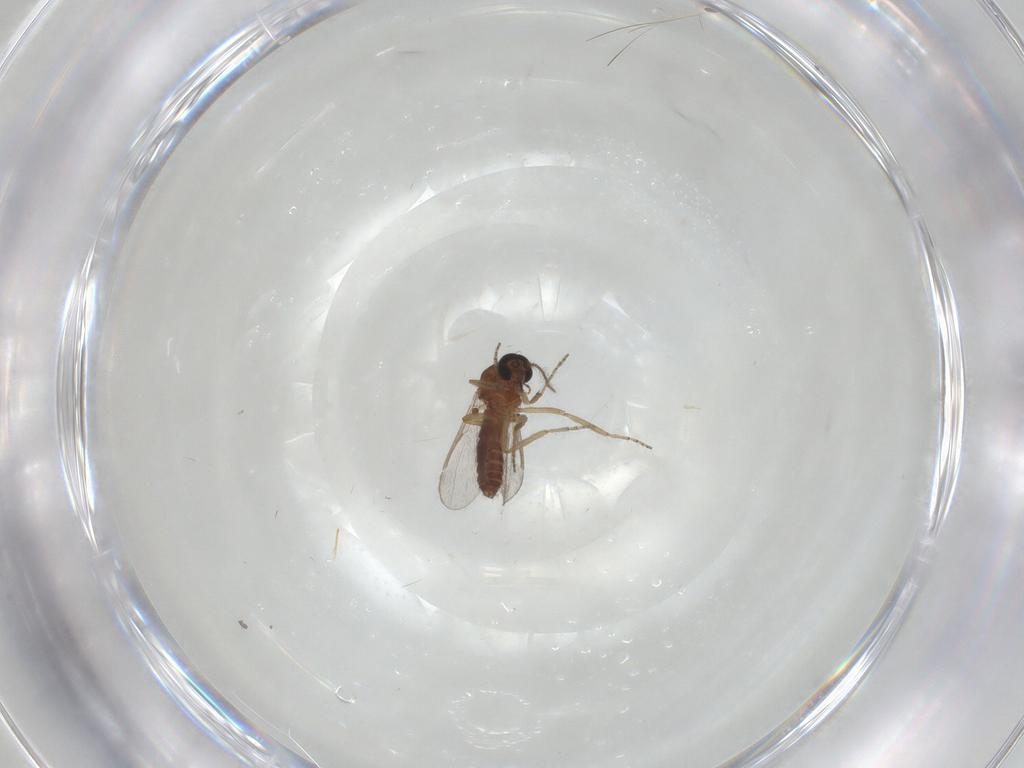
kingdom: Animalia
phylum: Arthropoda
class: Insecta
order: Diptera
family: Ceratopogonidae
